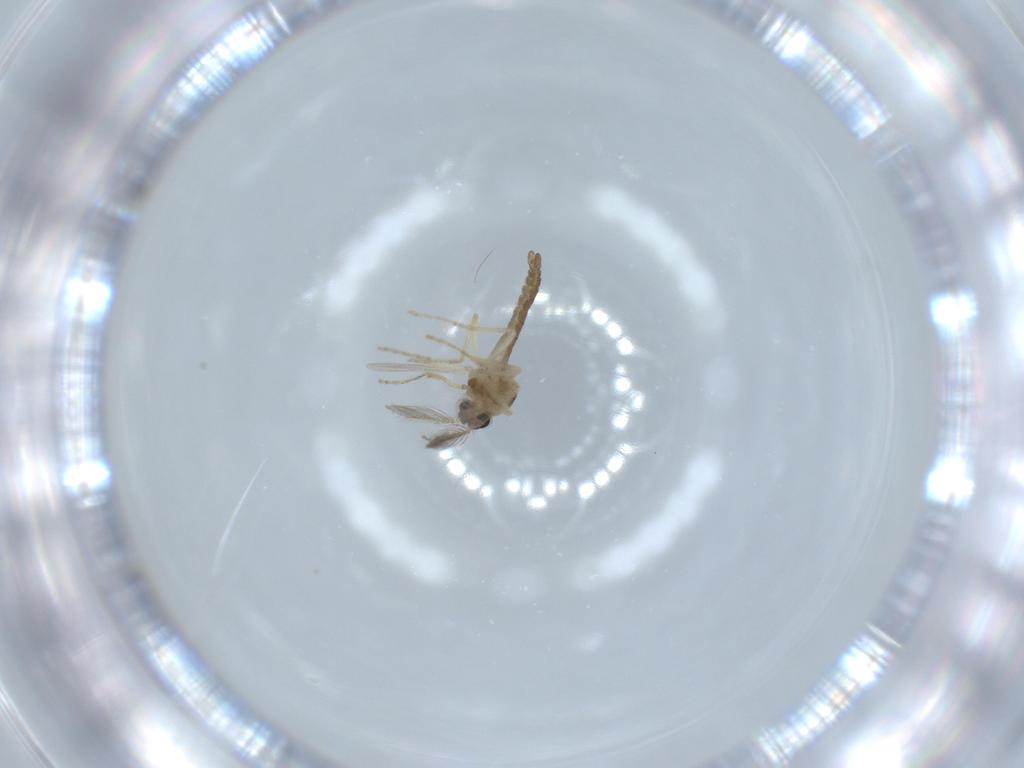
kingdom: Animalia
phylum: Arthropoda
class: Insecta
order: Diptera
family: Ceratopogonidae
